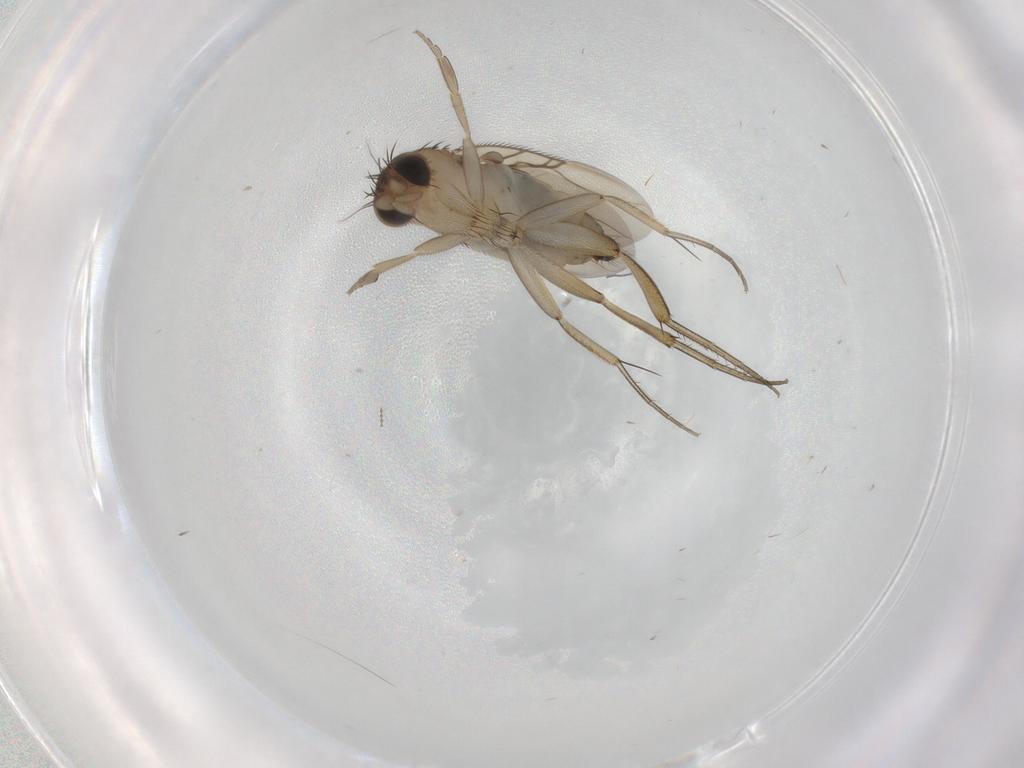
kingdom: Animalia
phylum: Arthropoda
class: Insecta
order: Diptera
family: Phoridae
